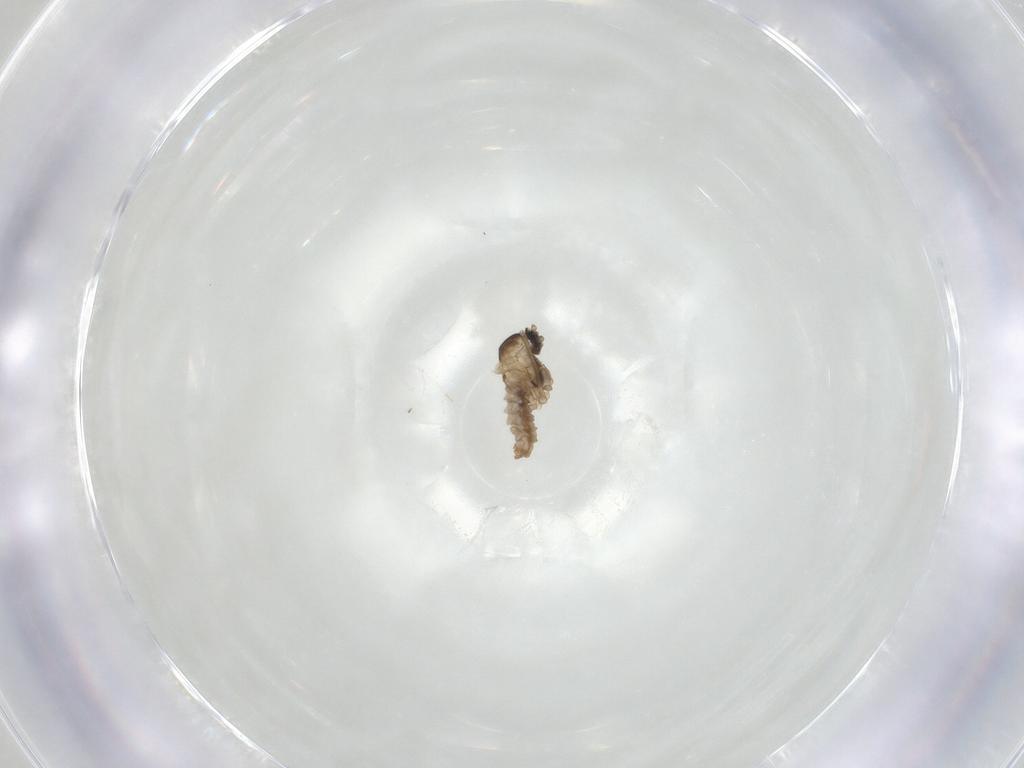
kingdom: Animalia
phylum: Arthropoda
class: Insecta
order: Diptera
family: Cecidomyiidae
